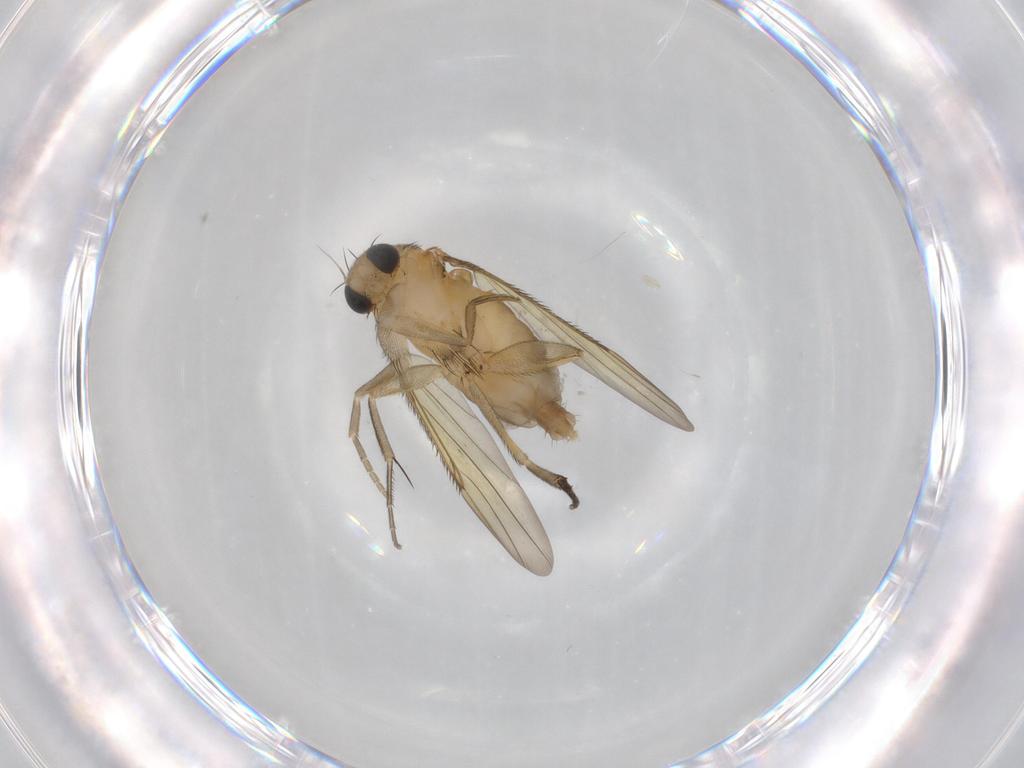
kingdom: Animalia
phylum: Arthropoda
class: Insecta
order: Diptera
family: Phoridae
